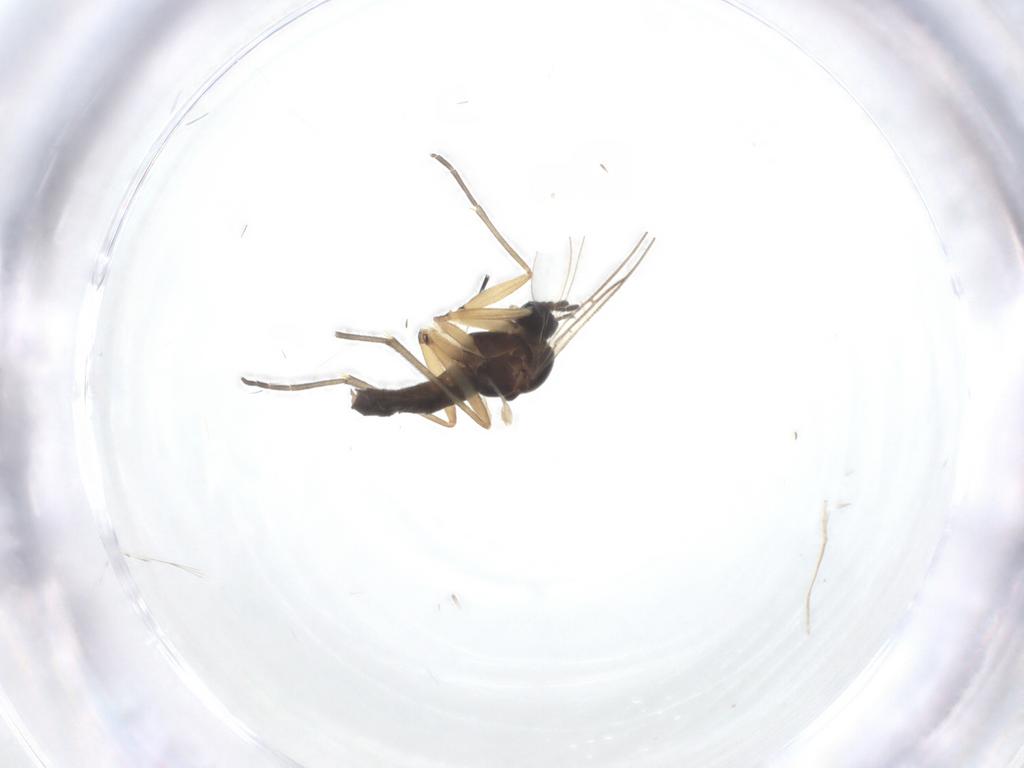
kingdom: Animalia
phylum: Arthropoda
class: Insecta
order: Diptera
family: Sciaridae
